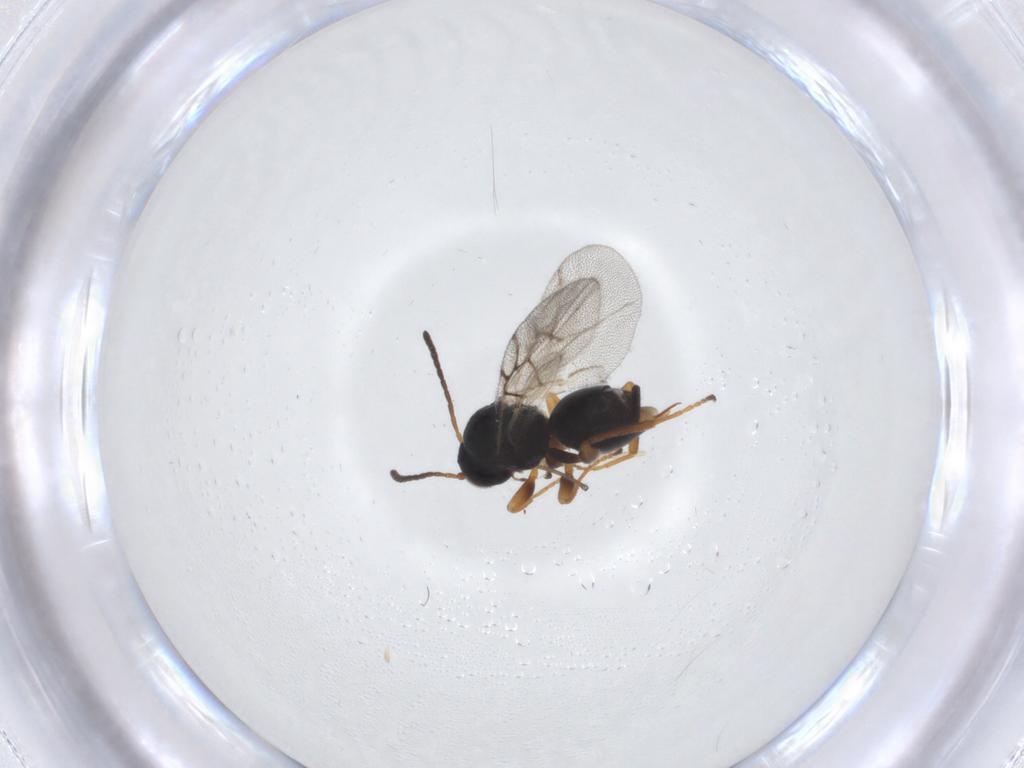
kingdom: Animalia
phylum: Arthropoda
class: Insecta
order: Hymenoptera
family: Cynipidae
